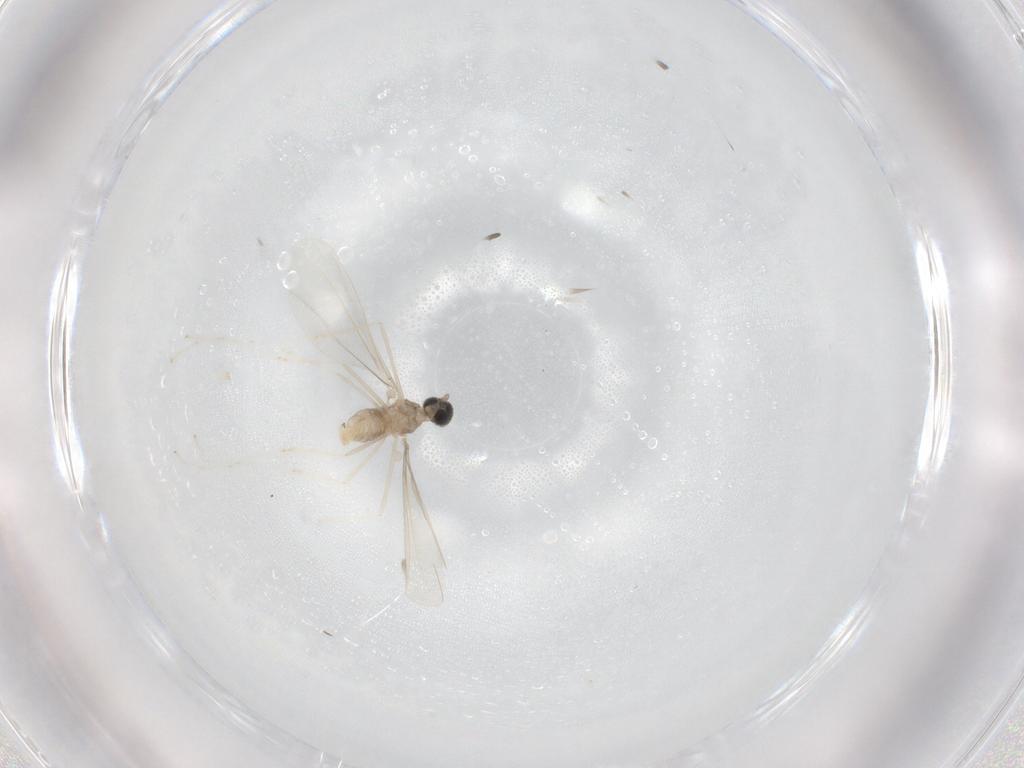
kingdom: Animalia
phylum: Arthropoda
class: Insecta
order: Diptera
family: Cecidomyiidae
